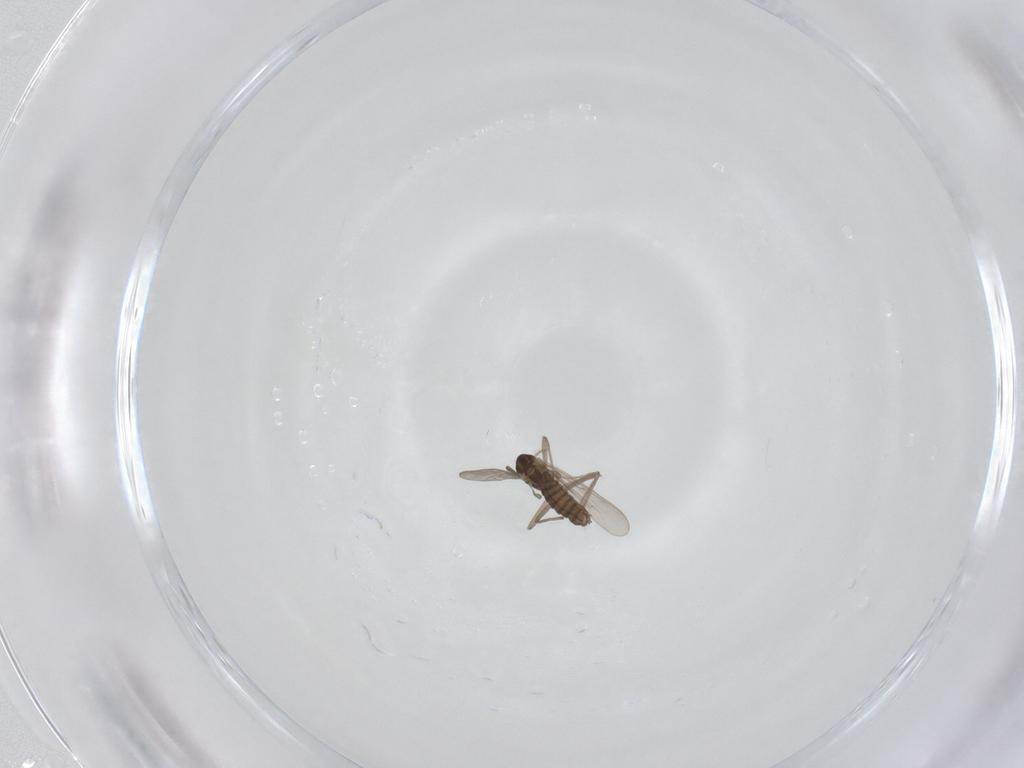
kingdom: Animalia
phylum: Arthropoda
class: Insecta
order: Diptera
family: Chironomidae
